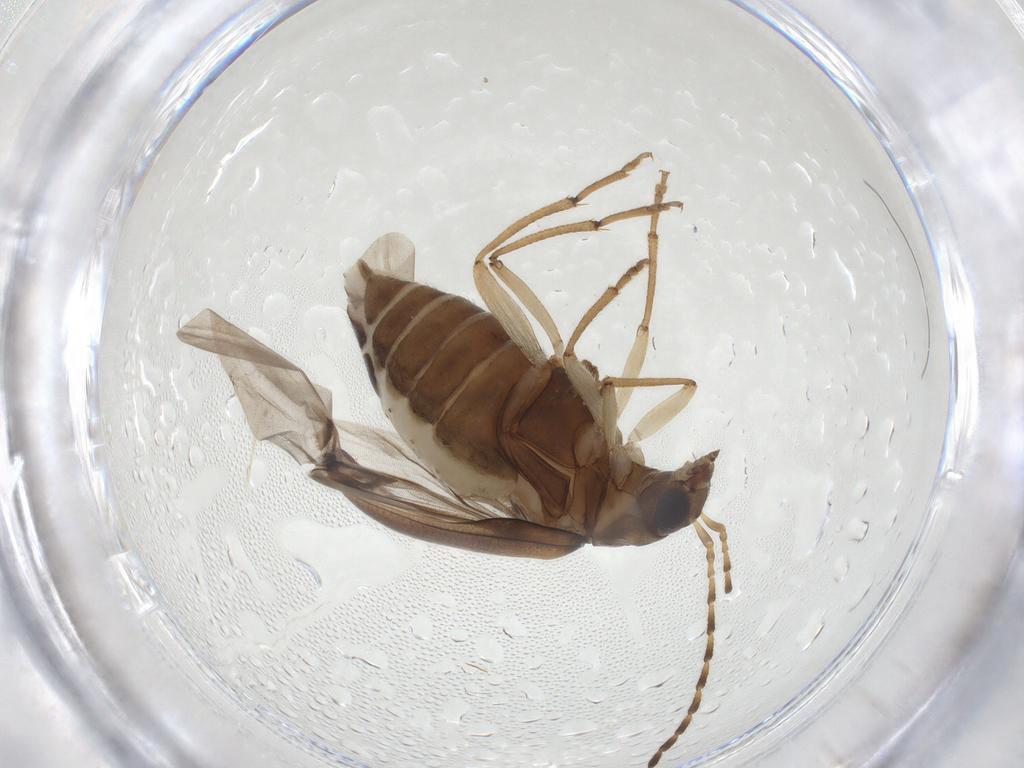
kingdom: Animalia
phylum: Arthropoda
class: Insecta
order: Coleoptera
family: Chrysomelidae
